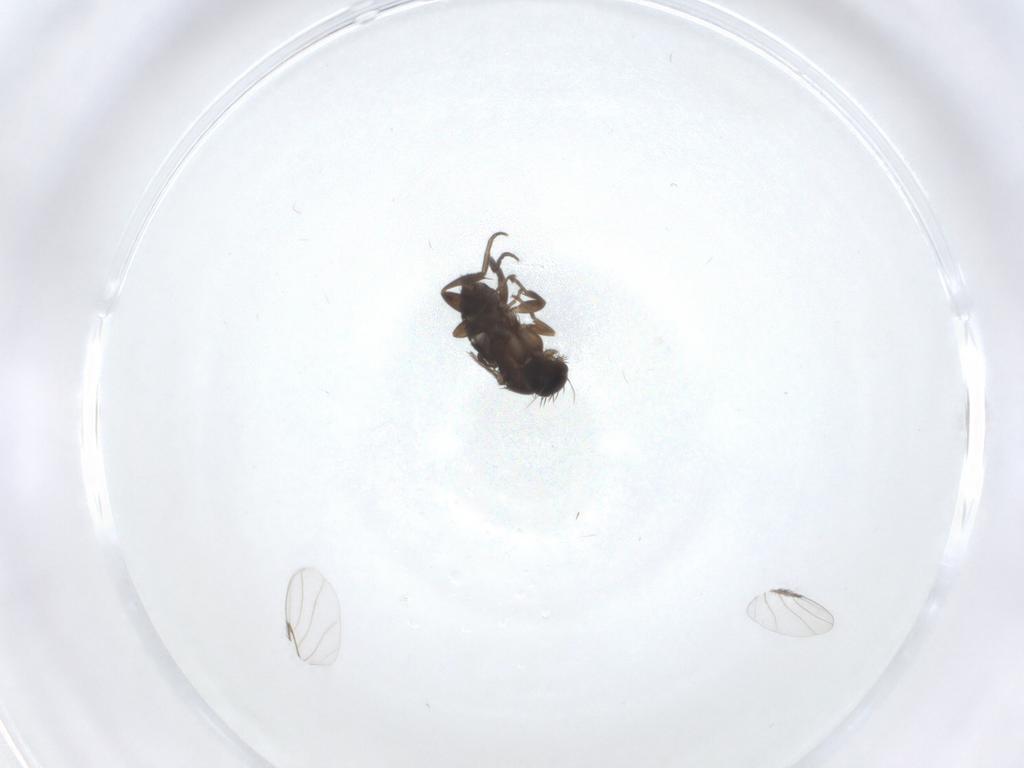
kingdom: Animalia
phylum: Arthropoda
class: Insecta
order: Diptera
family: Phoridae
